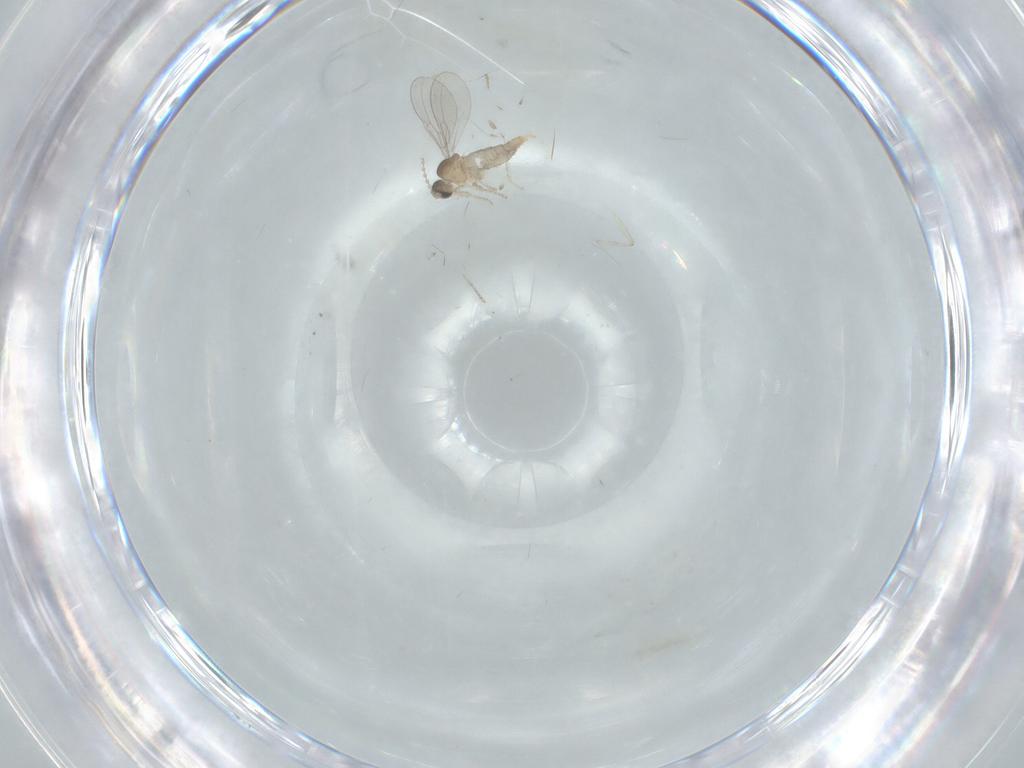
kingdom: Animalia
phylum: Arthropoda
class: Insecta
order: Diptera
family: Cecidomyiidae
